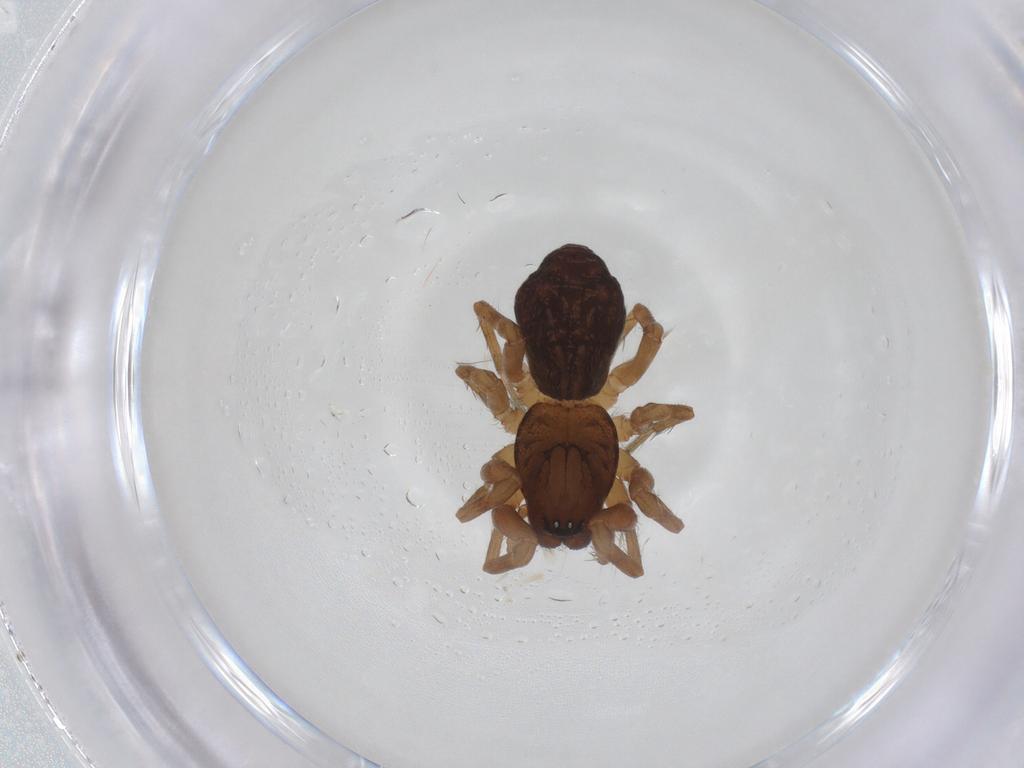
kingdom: Animalia
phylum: Arthropoda
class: Arachnida
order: Araneae
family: Dictynidae
